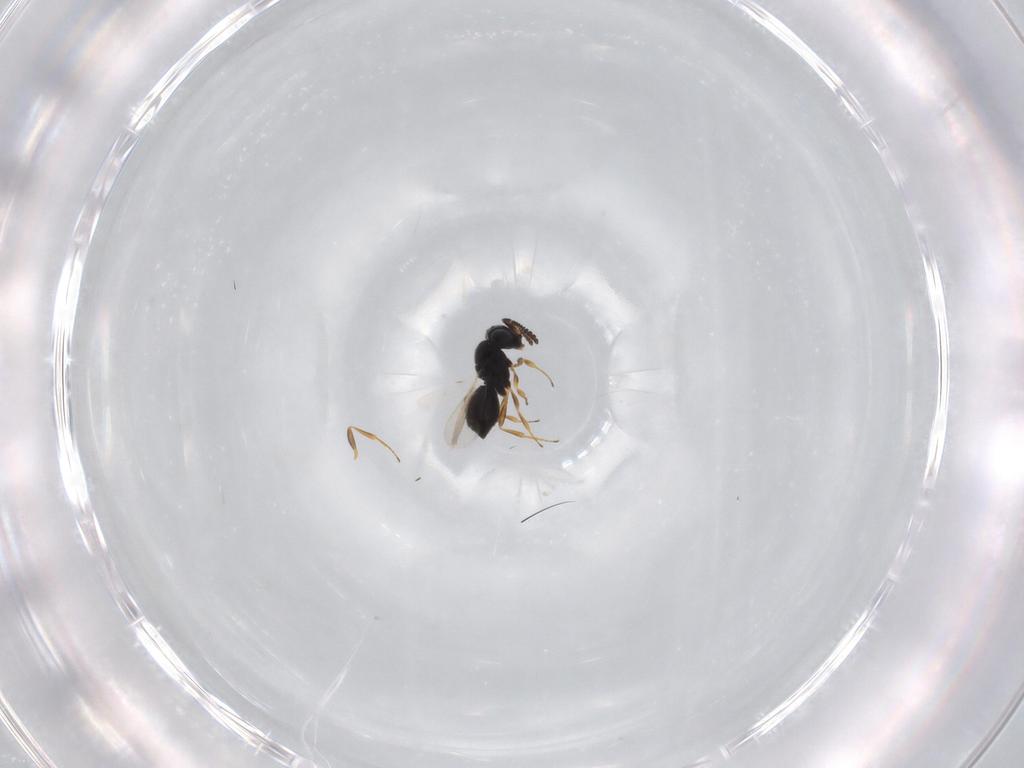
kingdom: Animalia
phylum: Arthropoda
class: Insecta
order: Hymenoptera
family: Scelionidae
